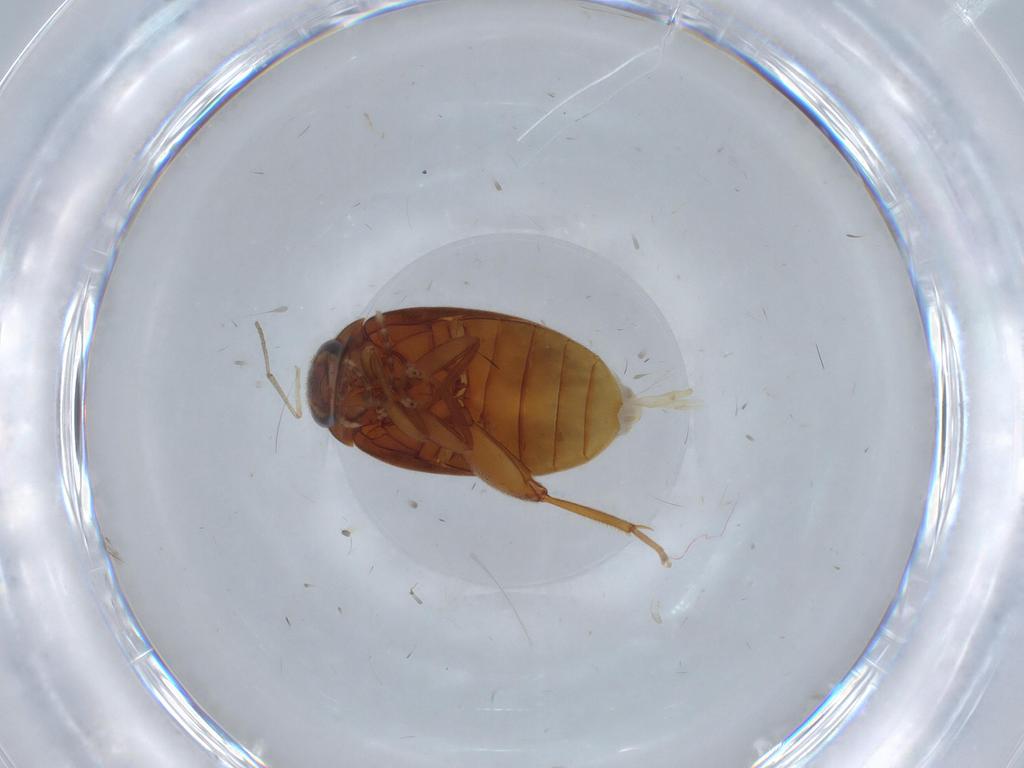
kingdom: Animalia
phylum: Arthropoda
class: Insecta
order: Coleoptera
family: Scirtidae
